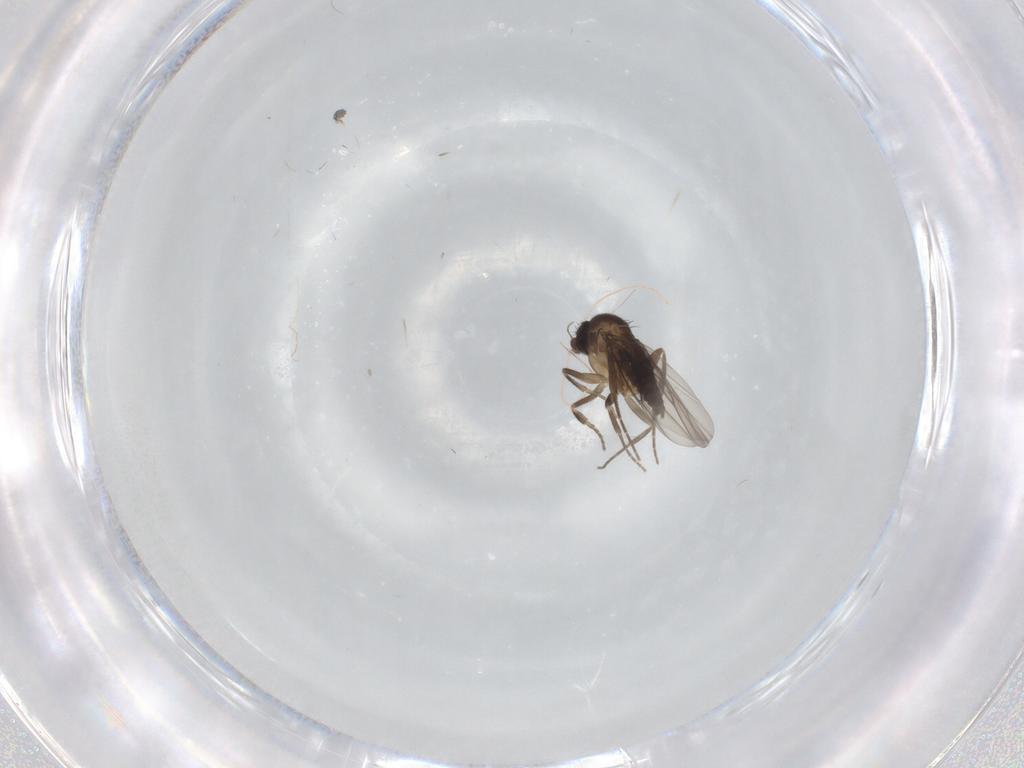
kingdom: Animalia
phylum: Arthropoda
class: Insecta
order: Diptera
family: Phoridae
